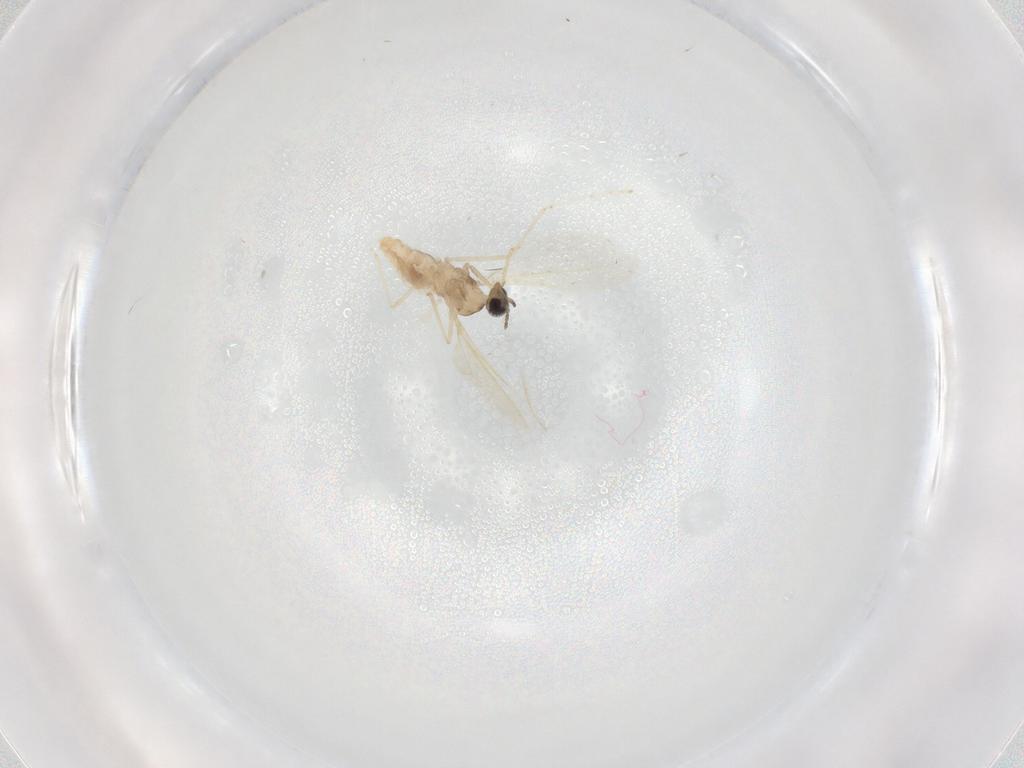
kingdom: Animalia
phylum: Arthropoda
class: Insecta
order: Diptera
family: Cecidomyiidae
